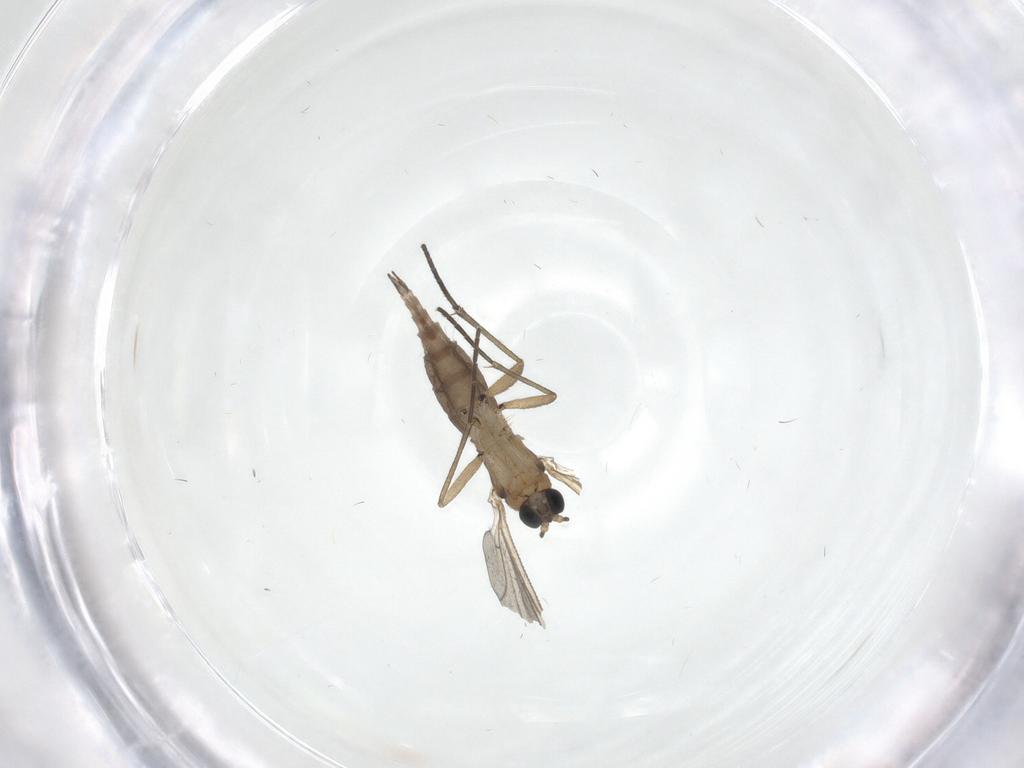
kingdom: Animalia
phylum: Arthropoda
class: Insecta
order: Diptera
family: Sciaridae
